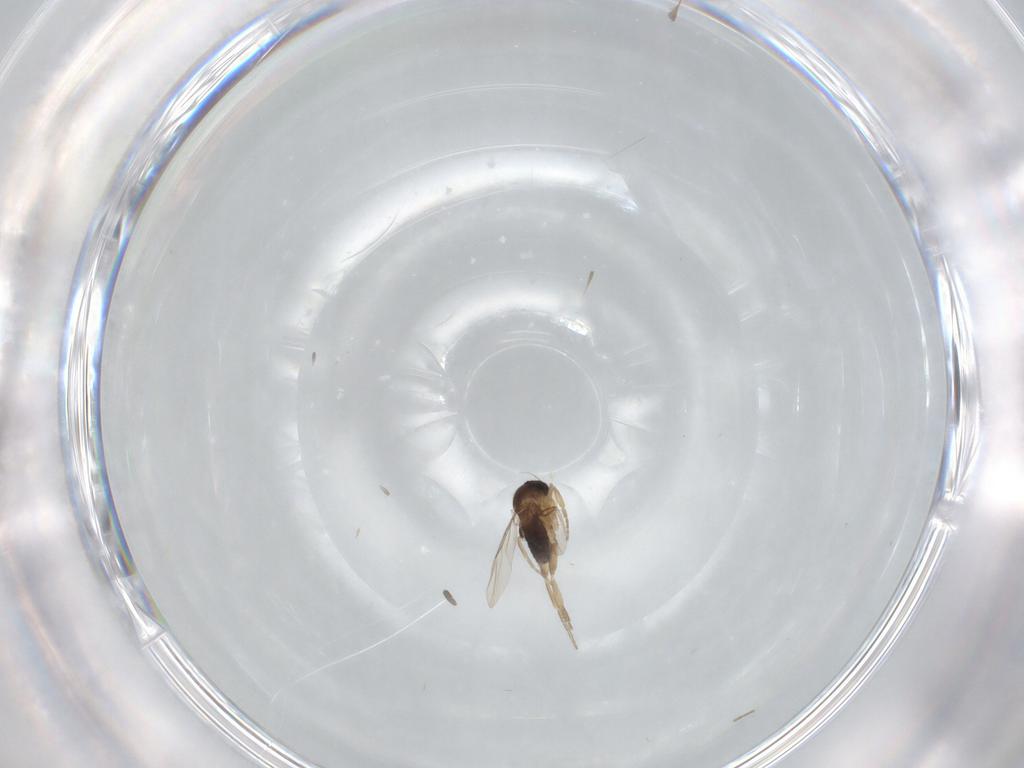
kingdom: Animalia
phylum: Arthropoda
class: Insecta
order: Diptera
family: Phoridae
